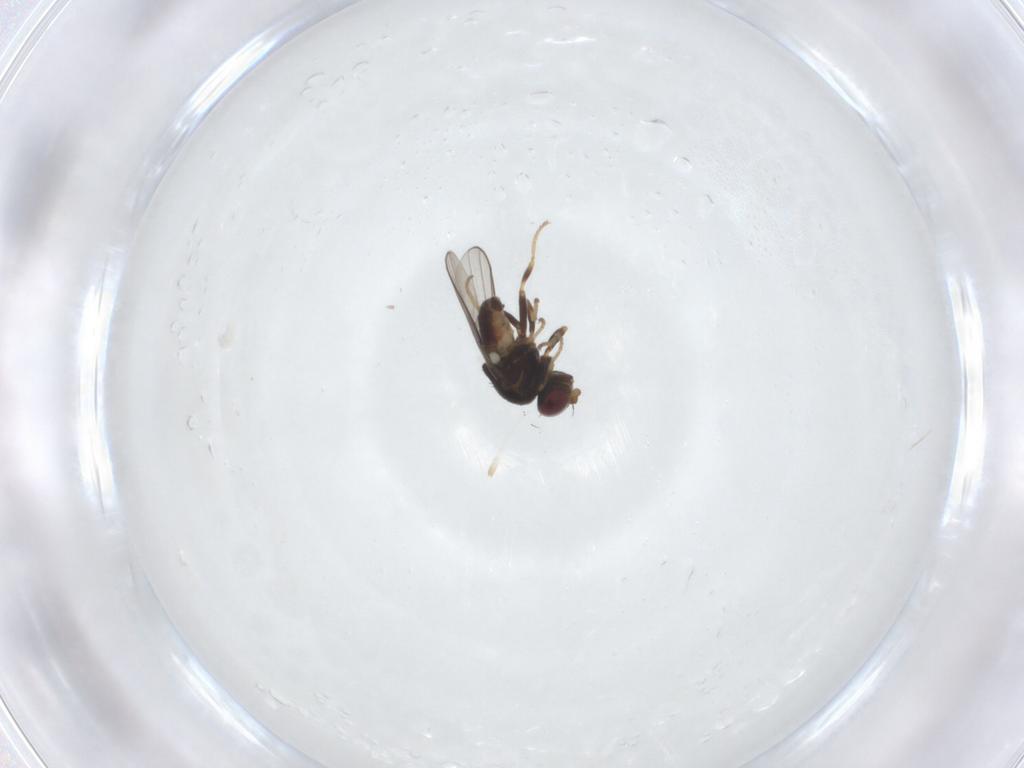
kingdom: Animalia
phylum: Arthropoda
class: Insecta
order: Diptera
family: Chloropidae
